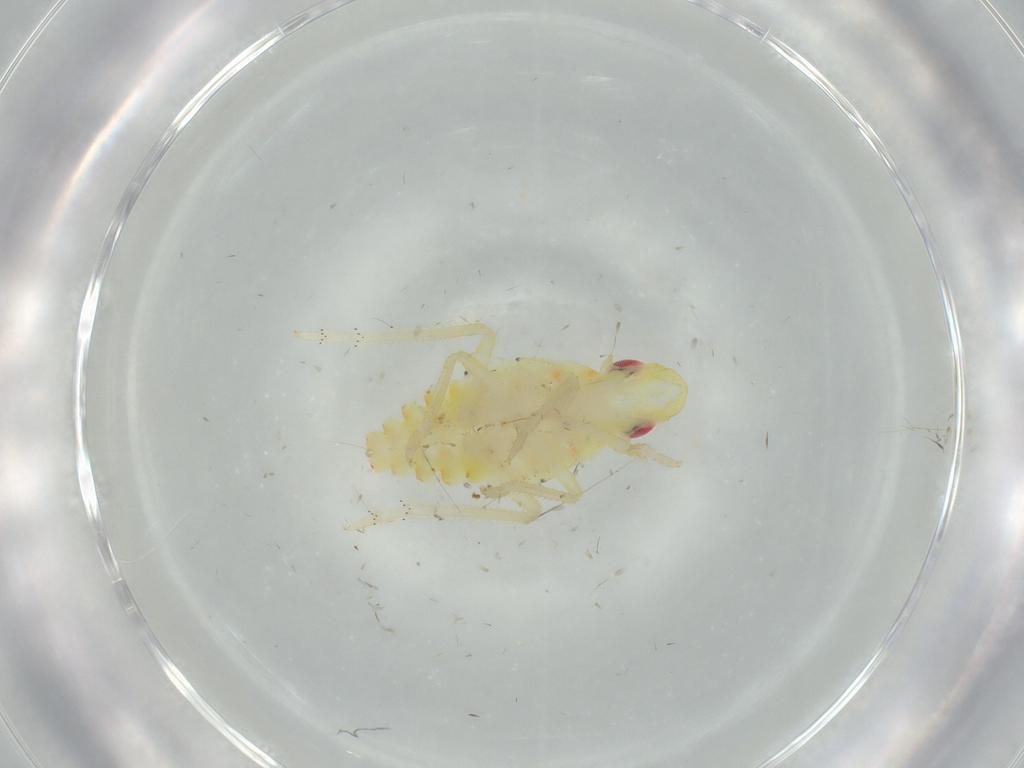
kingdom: Animalia
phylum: Arthropoda
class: Insecta
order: Hemiptera
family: Tropiduchidae
